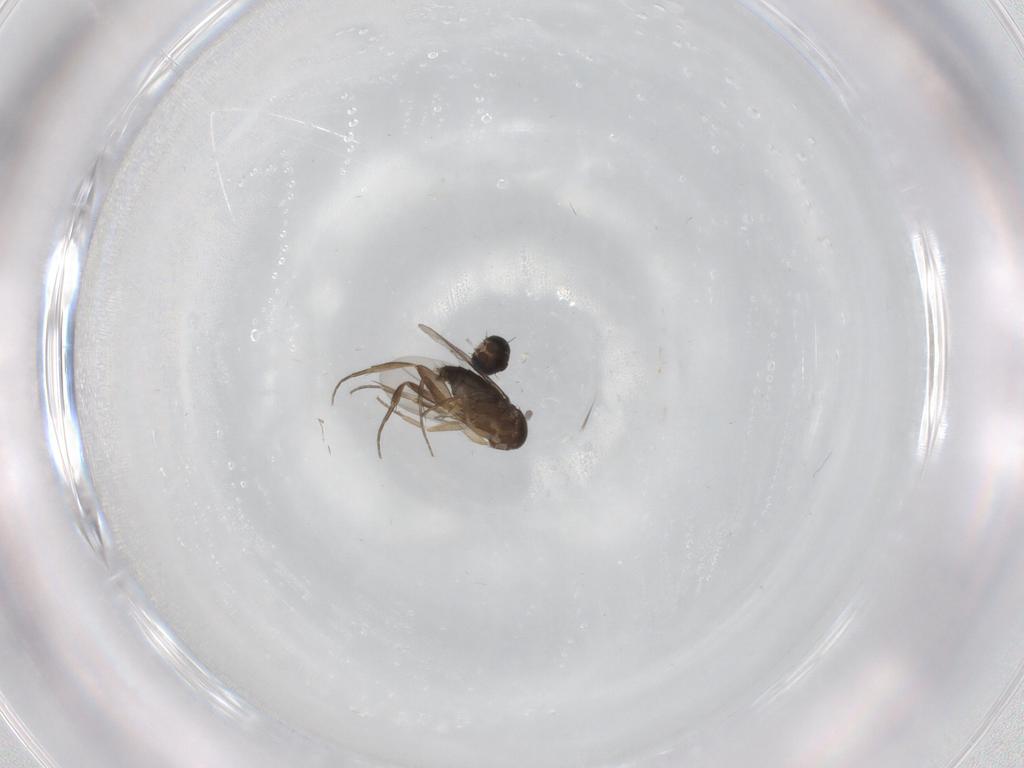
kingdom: Animalia
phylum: Arthropoda
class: Insecta
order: Diptera
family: Phoridae
